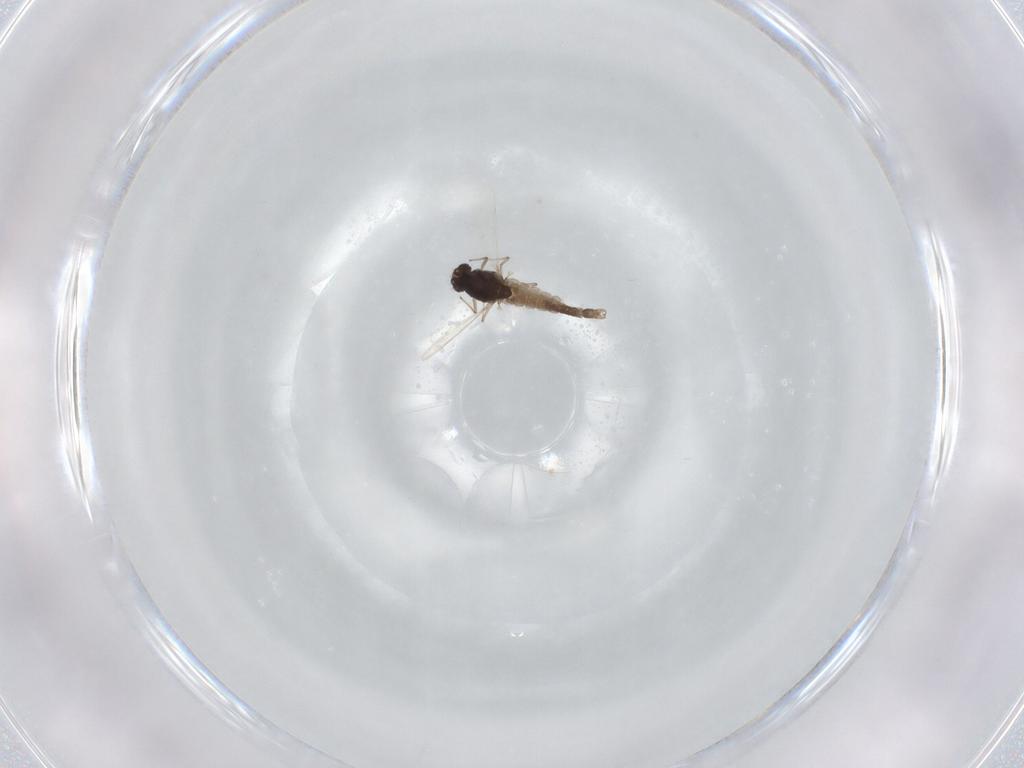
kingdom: Animalia
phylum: Arthropoda
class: Insecta
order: Diptera
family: Chironomidae
